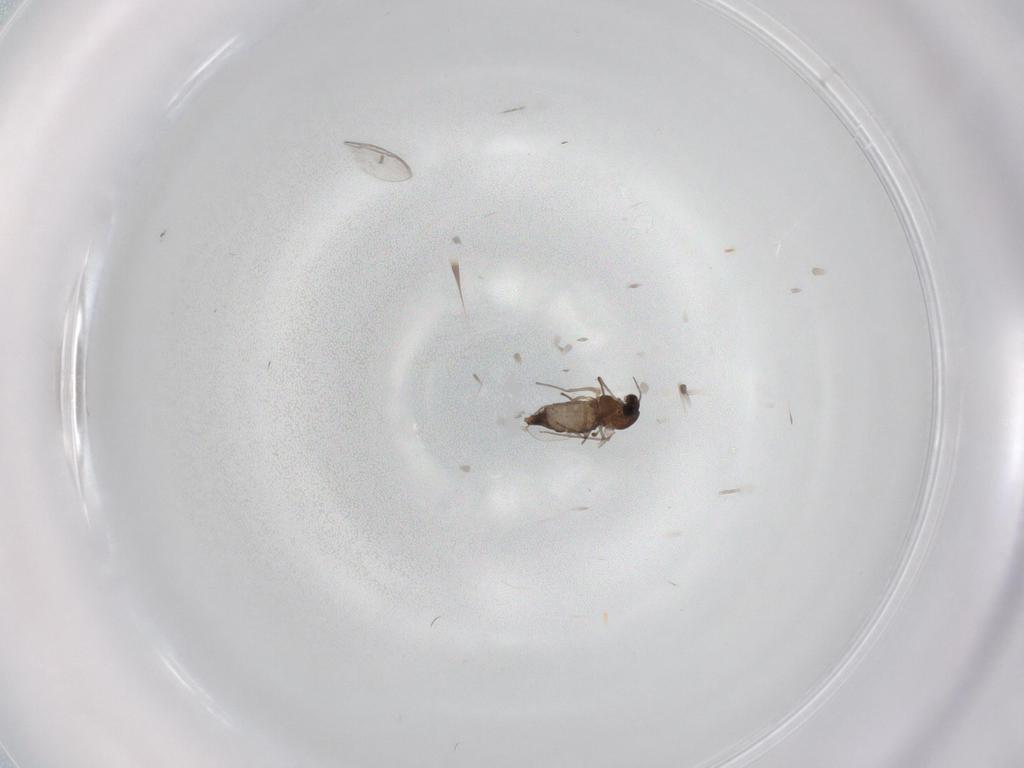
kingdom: Animalia
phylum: Arthropoda
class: Insecta
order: Diptera
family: Chironomidae
